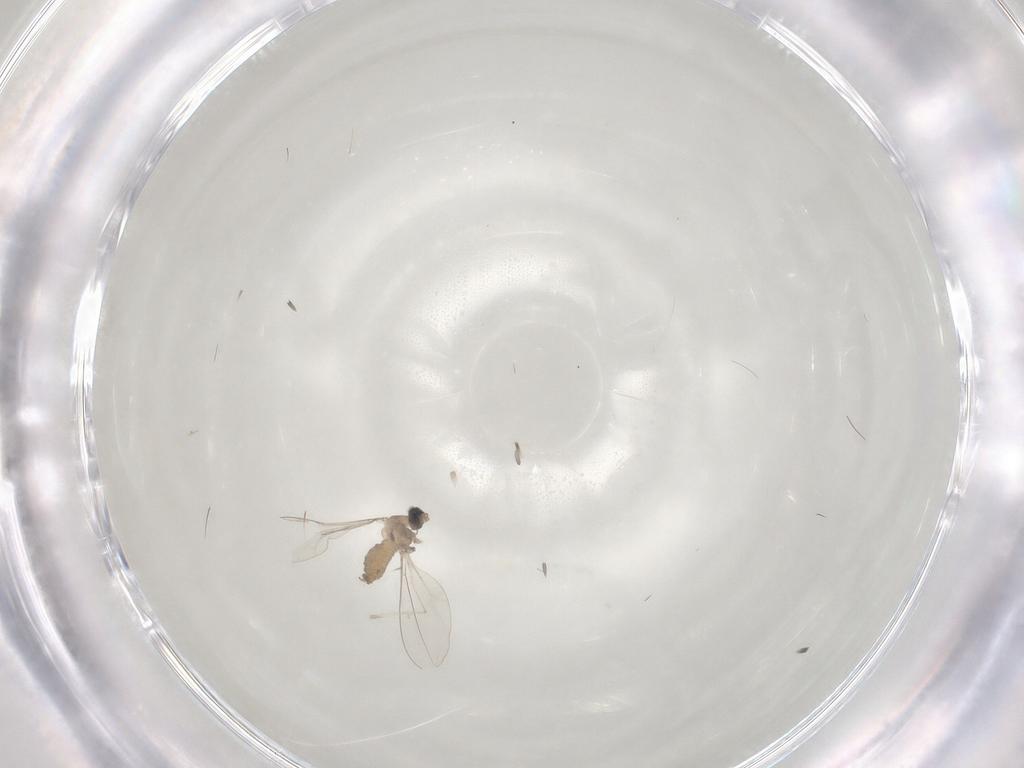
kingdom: Animalia
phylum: Arthropoda
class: Insecta
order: Diptera
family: Cecidomyiidae
